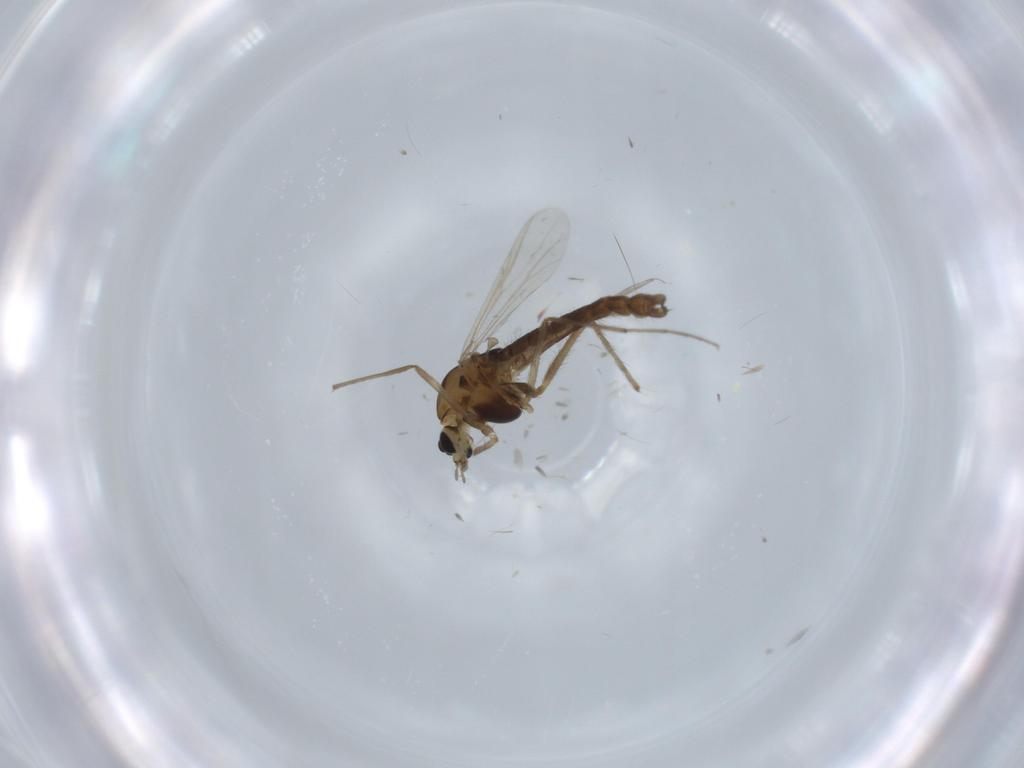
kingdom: Animalia
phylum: Arthropoda
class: Insecta
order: Diptera
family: Chironomidae
